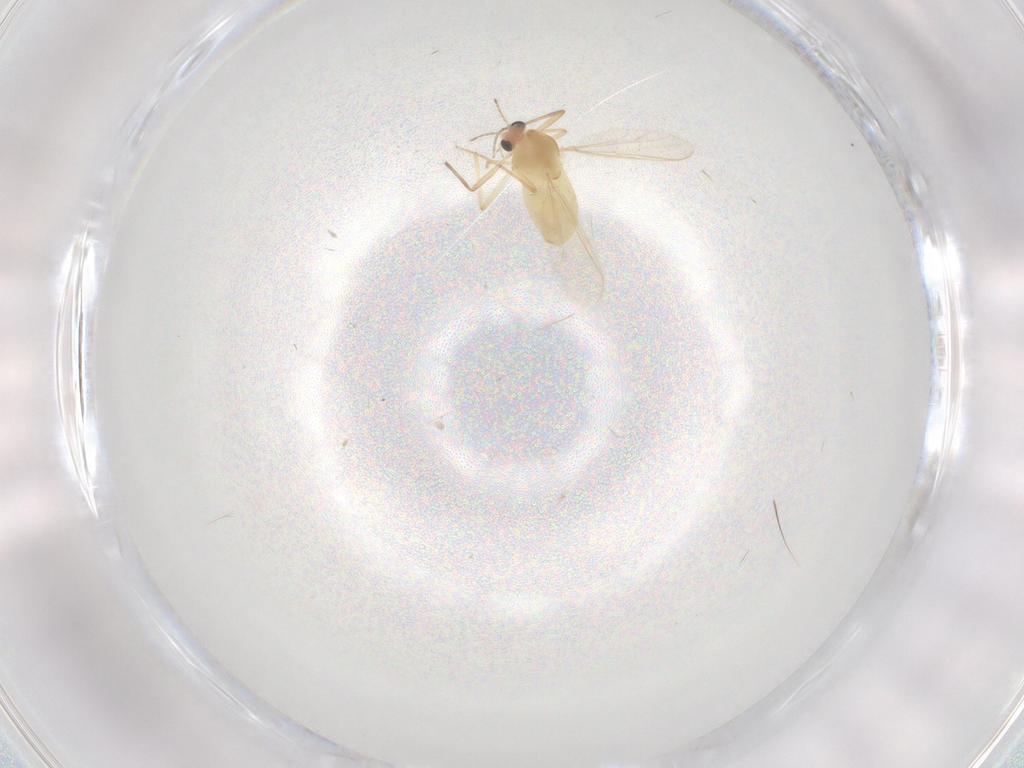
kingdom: Animalia
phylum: Arthropoda
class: Insecta
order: Diptera
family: Chironomidae
